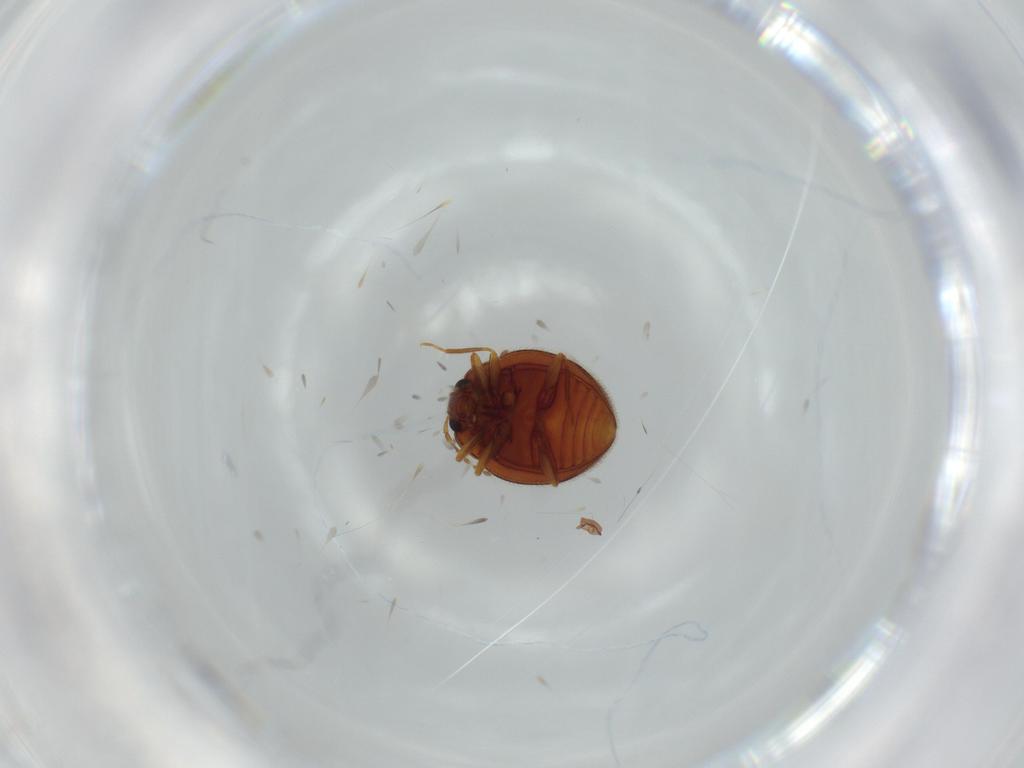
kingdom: Animalia
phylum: Arthropoda
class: Insecta
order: Coleoptera
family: Anamorphidae
